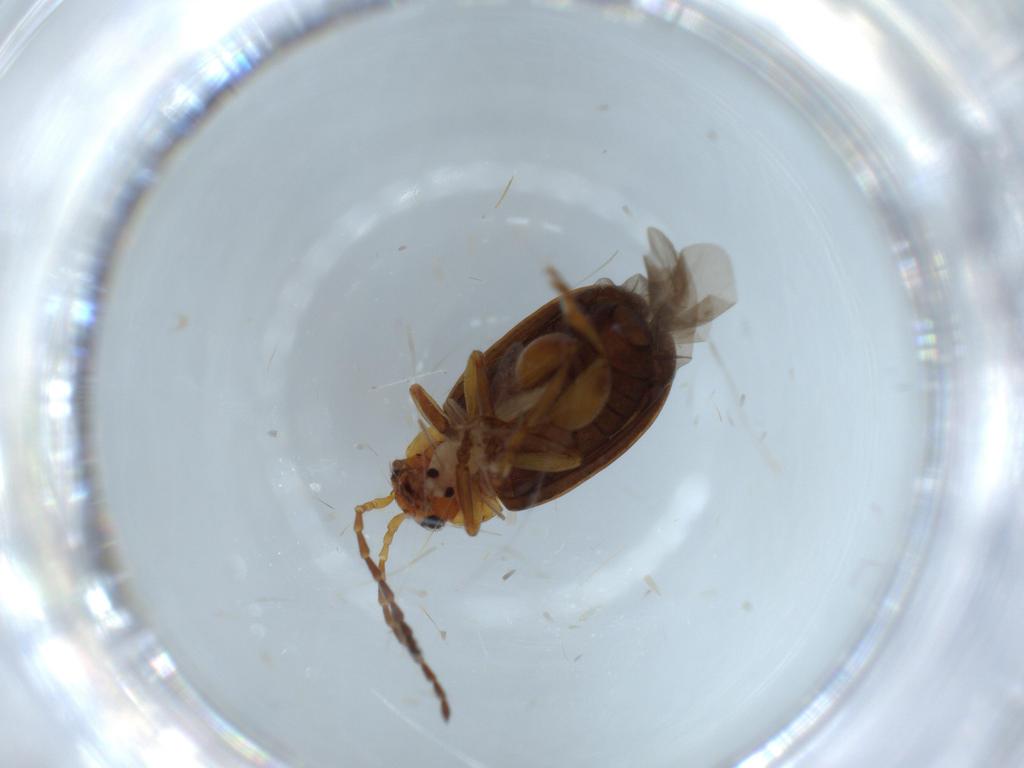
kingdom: Animalia
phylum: Arthropoda
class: Insecta
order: Coleoptera
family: Chrysomelidae
